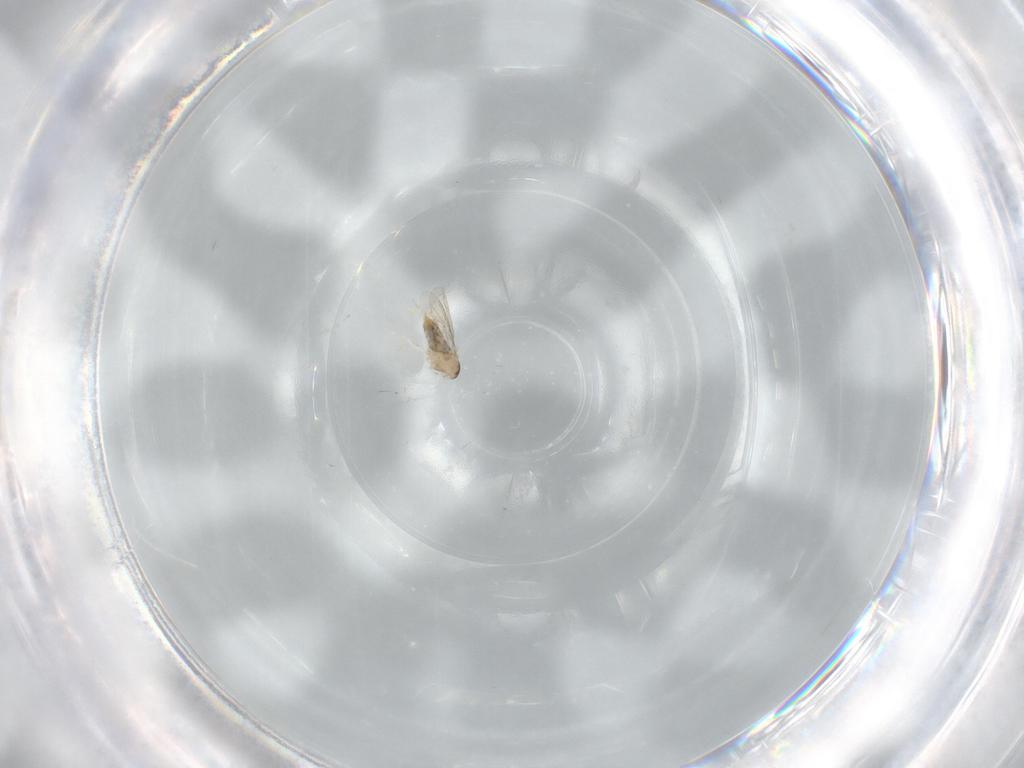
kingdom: Animalia
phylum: Arthropoda
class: Insecta
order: Diptera
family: Cecidomyiidae
